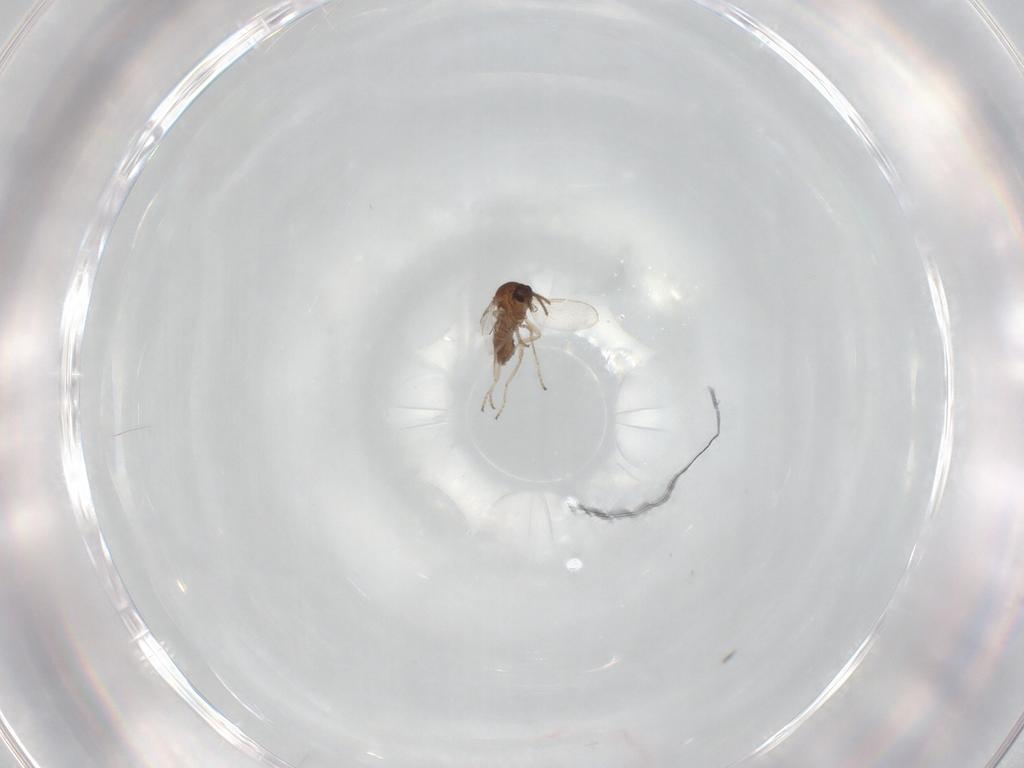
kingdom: Animalia
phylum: Arthropoda
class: Insecta
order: Diptera
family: Ceratopogonidae
